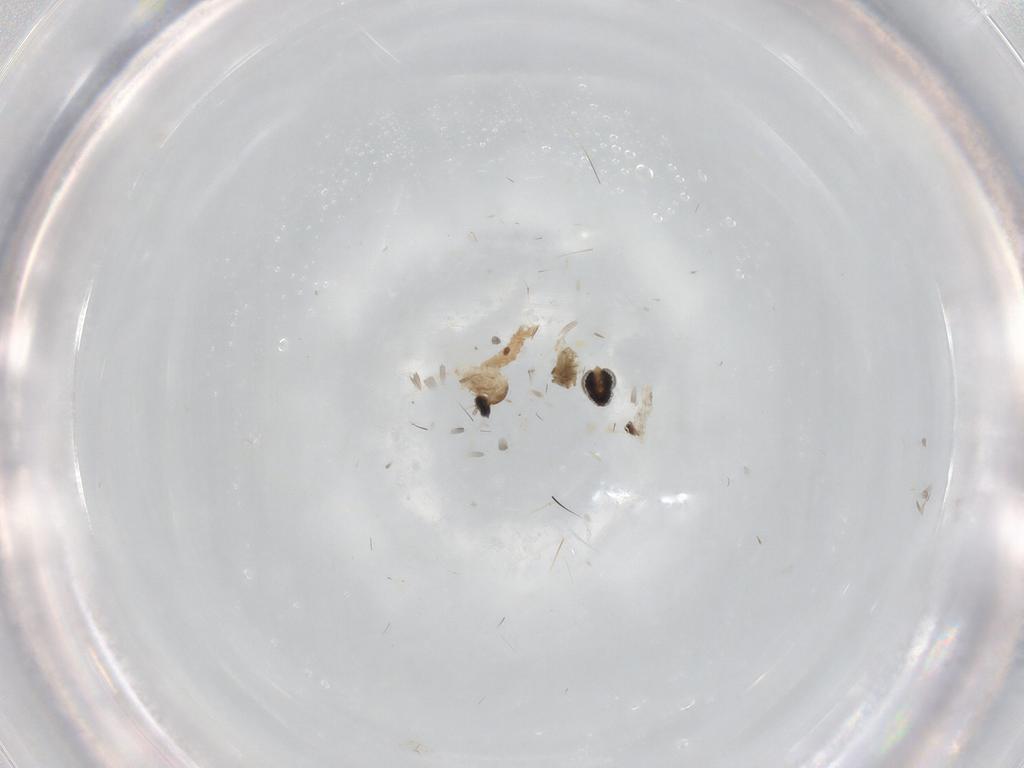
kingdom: Animalia
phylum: Arthropoda
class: Insecta
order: Diptera
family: Cecidomyiidae
